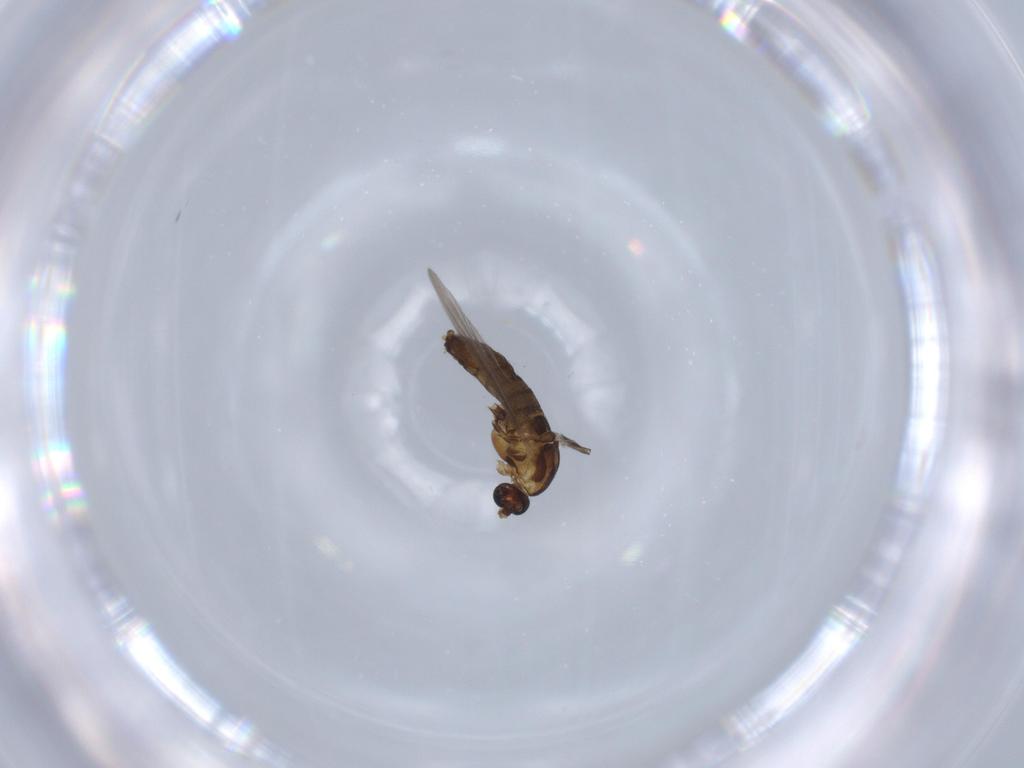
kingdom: Animalia
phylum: Arthropoda
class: Insecta
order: Diptera
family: Chironomidae
